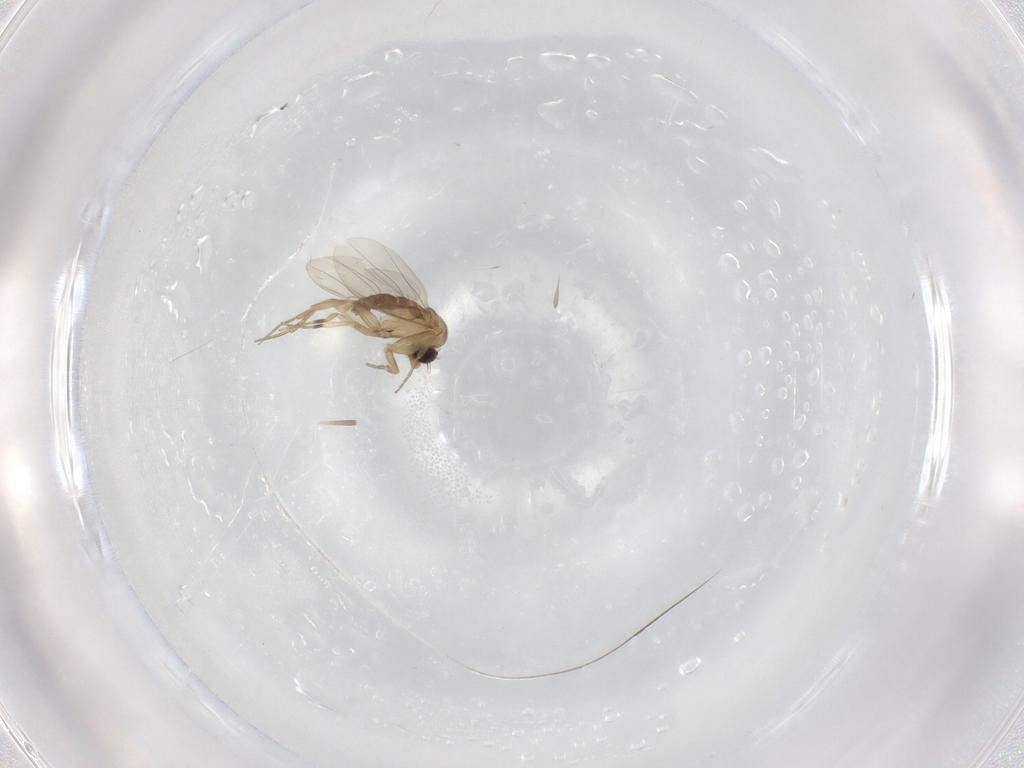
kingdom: Animalia
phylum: Arthropoda
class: Insecta
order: Diptera
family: Phoridae
